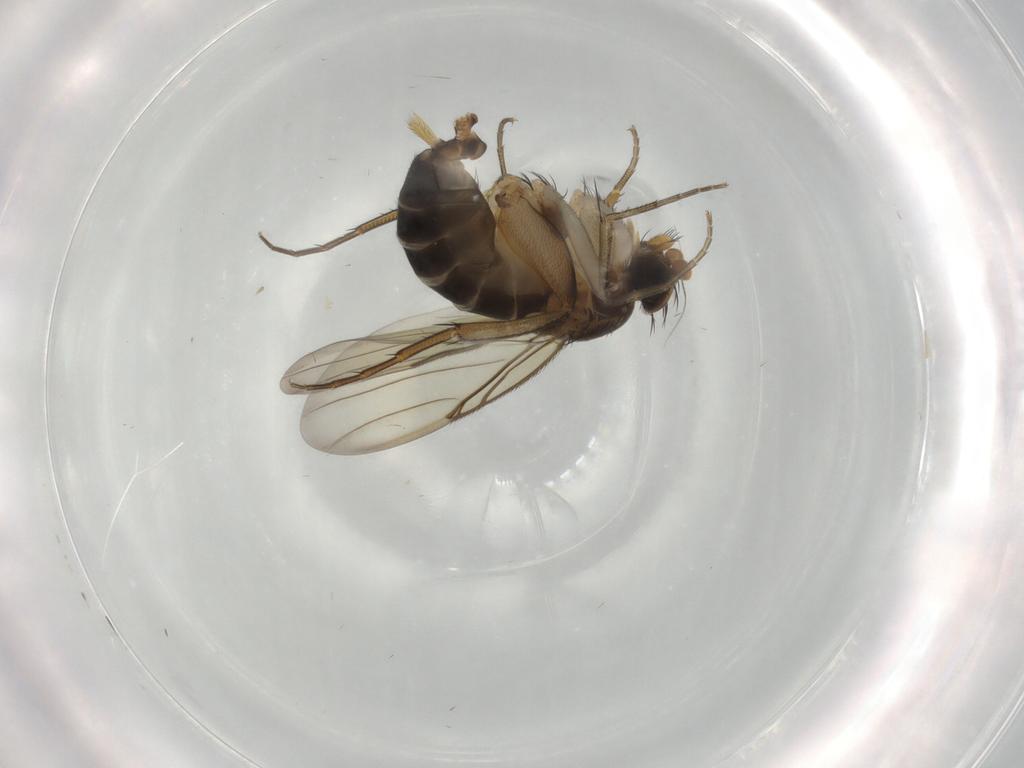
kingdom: Animalia
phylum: Arthropoda
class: Insecta
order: Diptera
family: Phoridae
